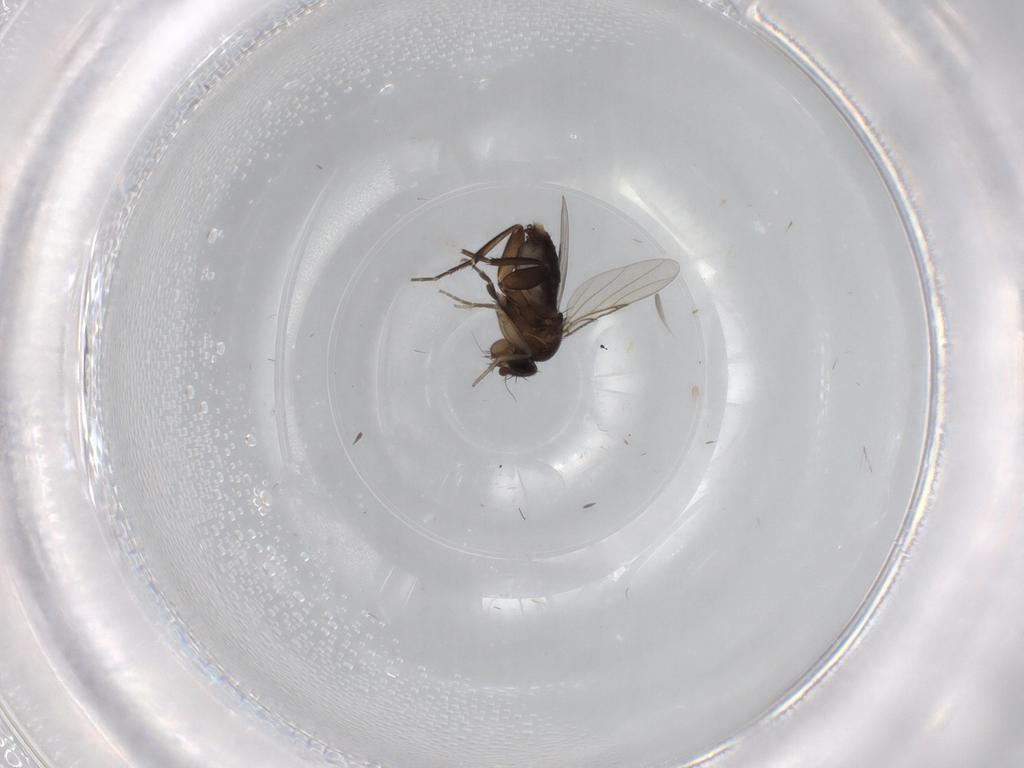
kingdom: Animalia
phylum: Arthropoda
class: Insecta
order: Diptera
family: Phoridae
